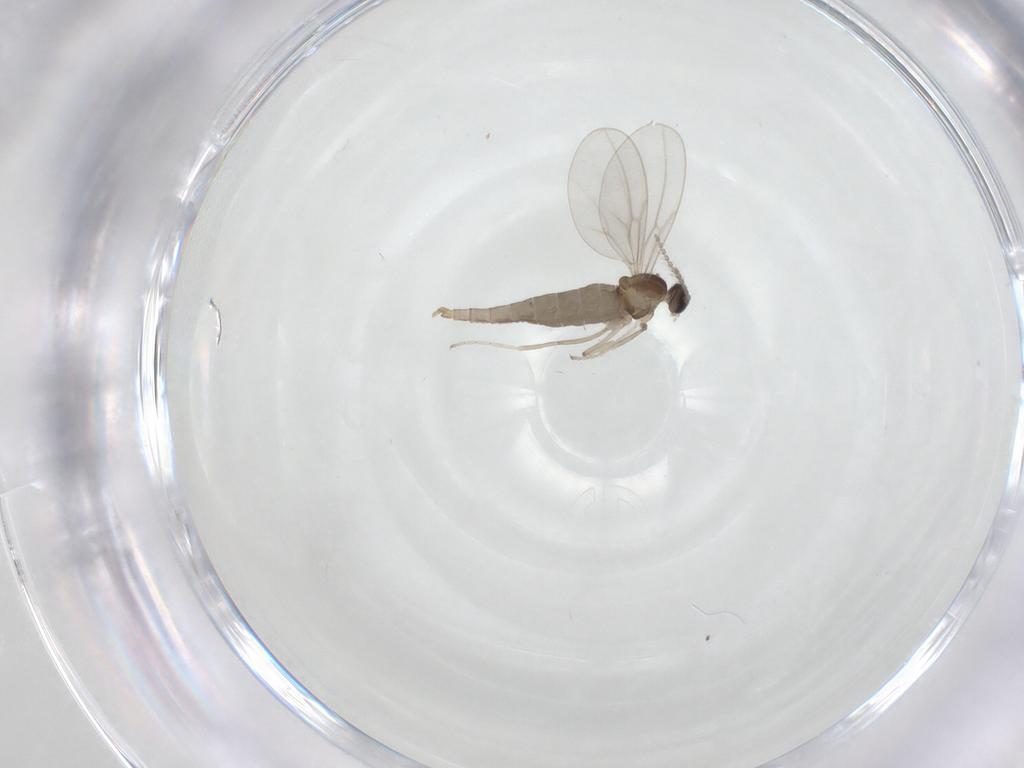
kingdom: Animalia
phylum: Arthropoda
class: Insecta
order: Diptera
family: Cecidomyiidae
